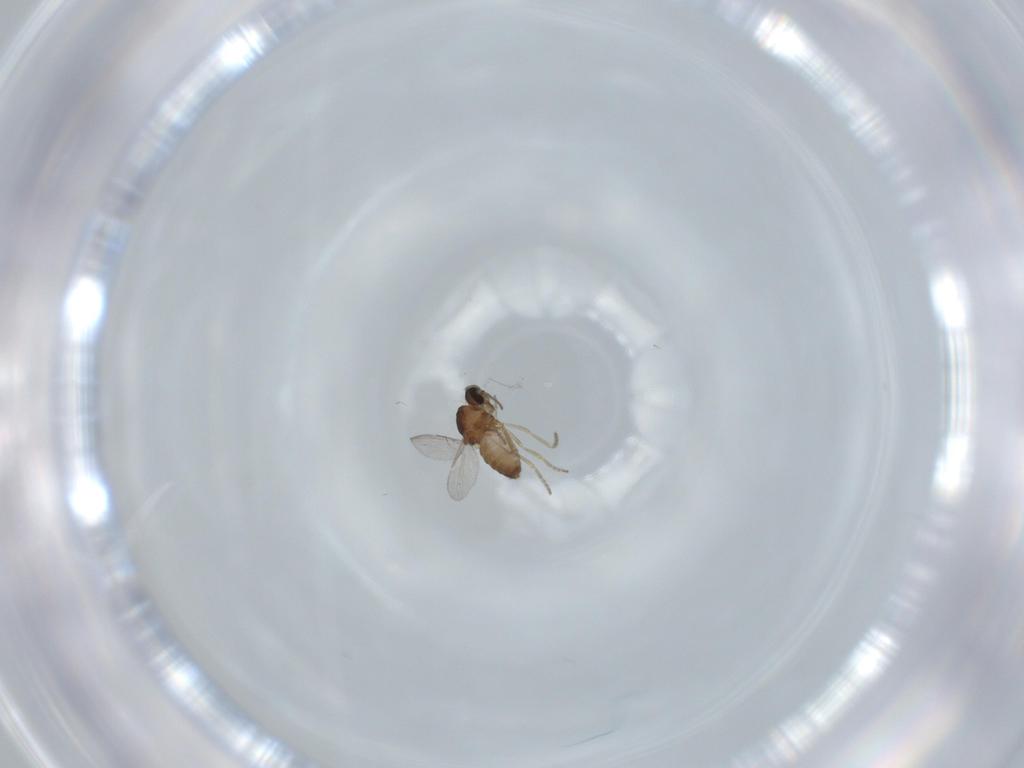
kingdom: Animalia
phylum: Arthropoda
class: Insecta
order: Diptera
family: Ceratopogonidae
